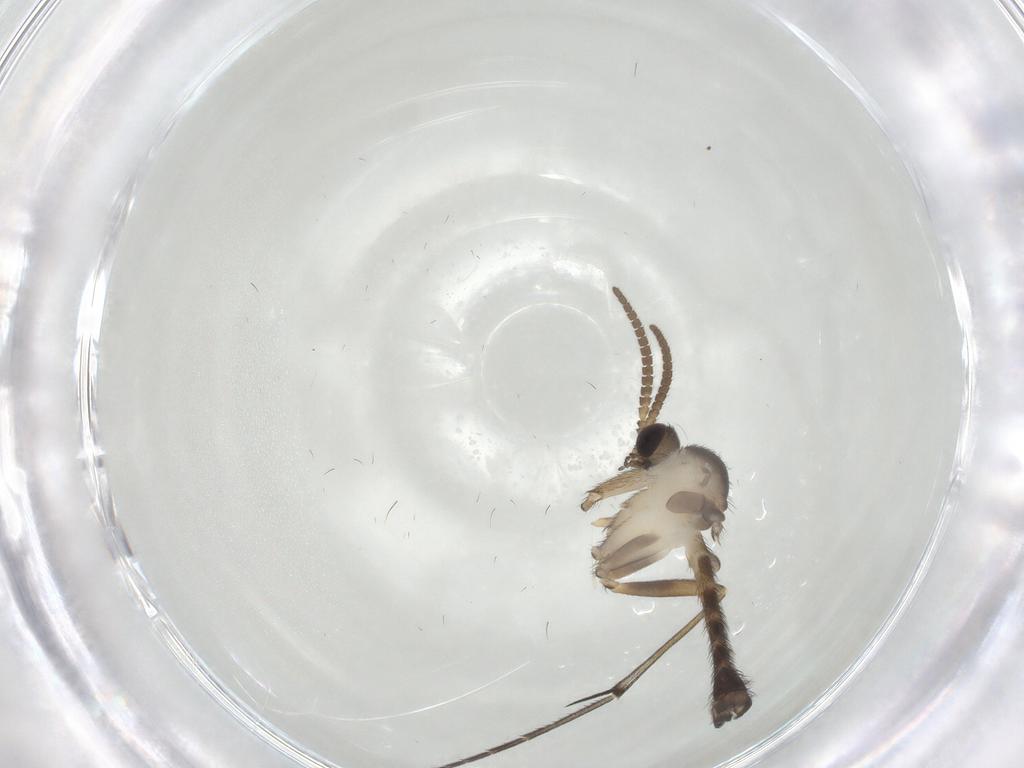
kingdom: Animalia
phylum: Arthropoda
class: Insecta
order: Diptera
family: Keroplatidae
